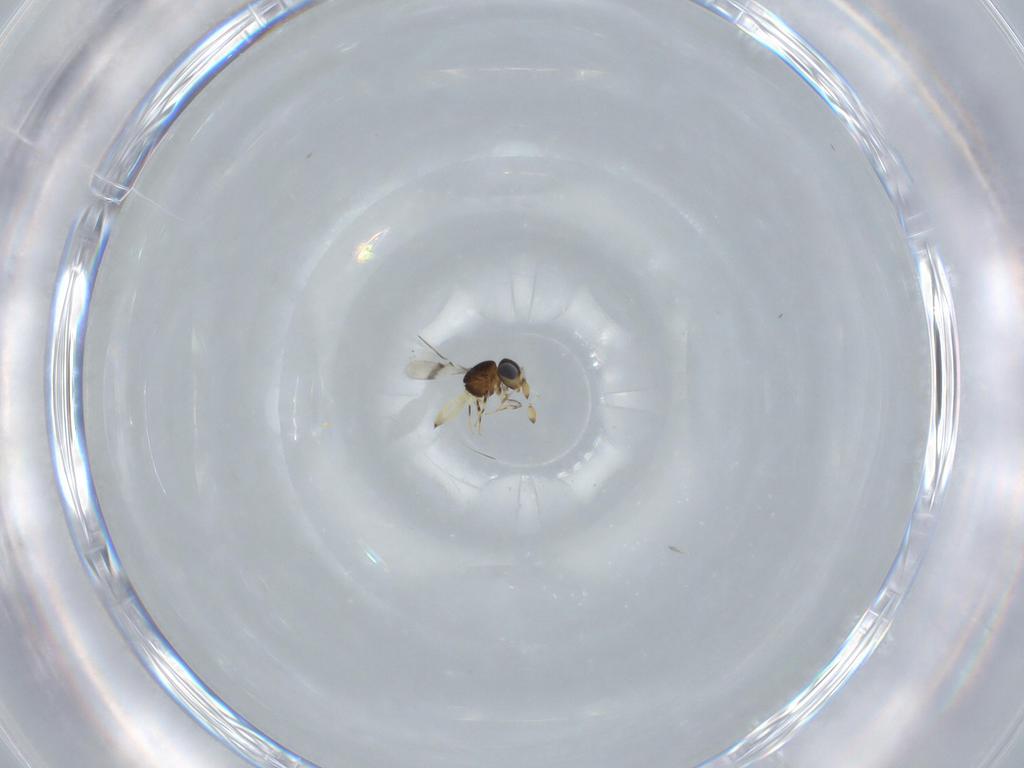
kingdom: Animalia
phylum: Arthropoda
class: Insecta
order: Hymenoptera
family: Scelionidae
